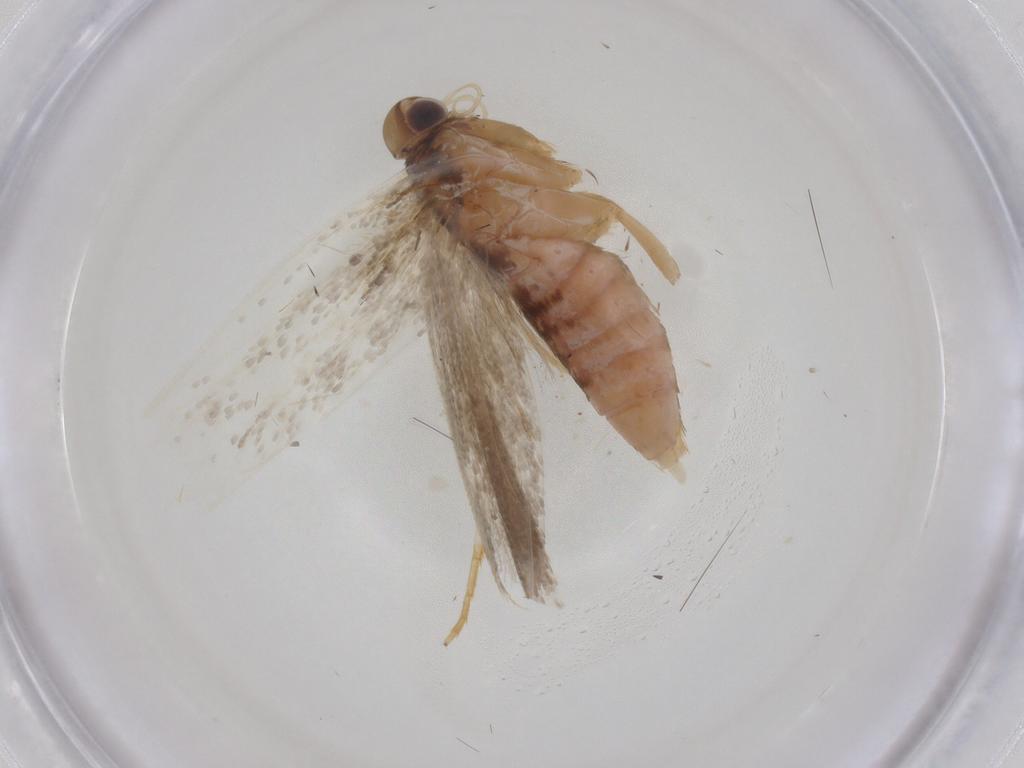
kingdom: Animalia
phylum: Arthropoda
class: Insecta
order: Lepidoptera
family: Gelechiidae
